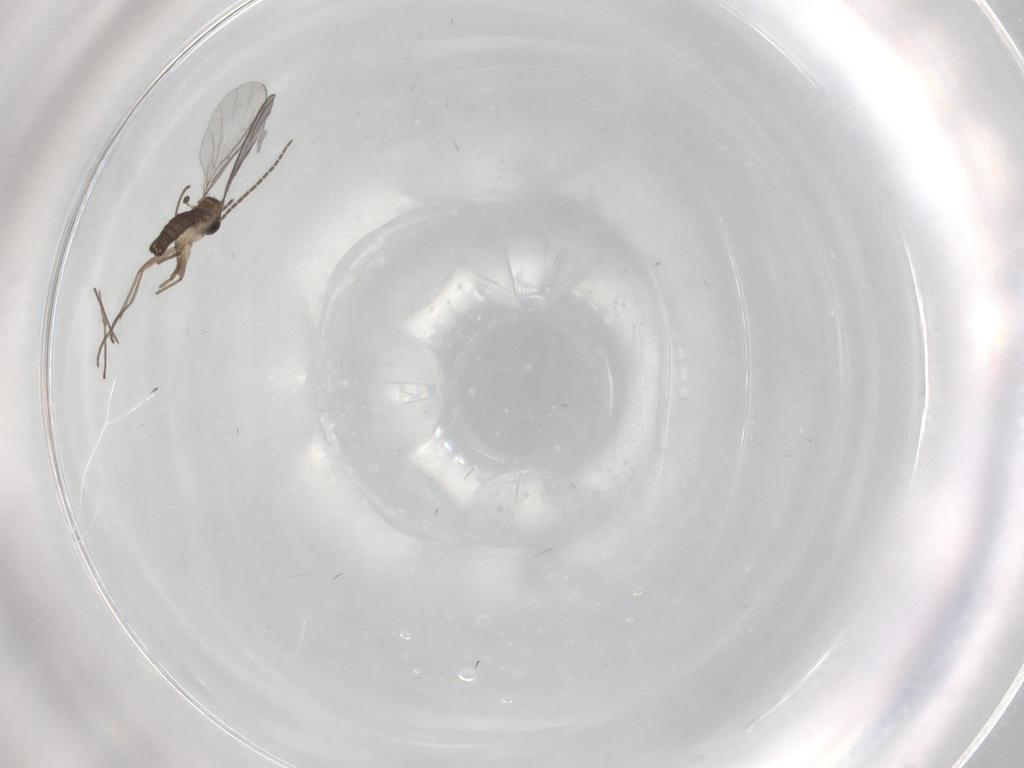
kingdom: Animalia
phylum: Arthropoda
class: Insecta
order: Diptera
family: Sciaridae
